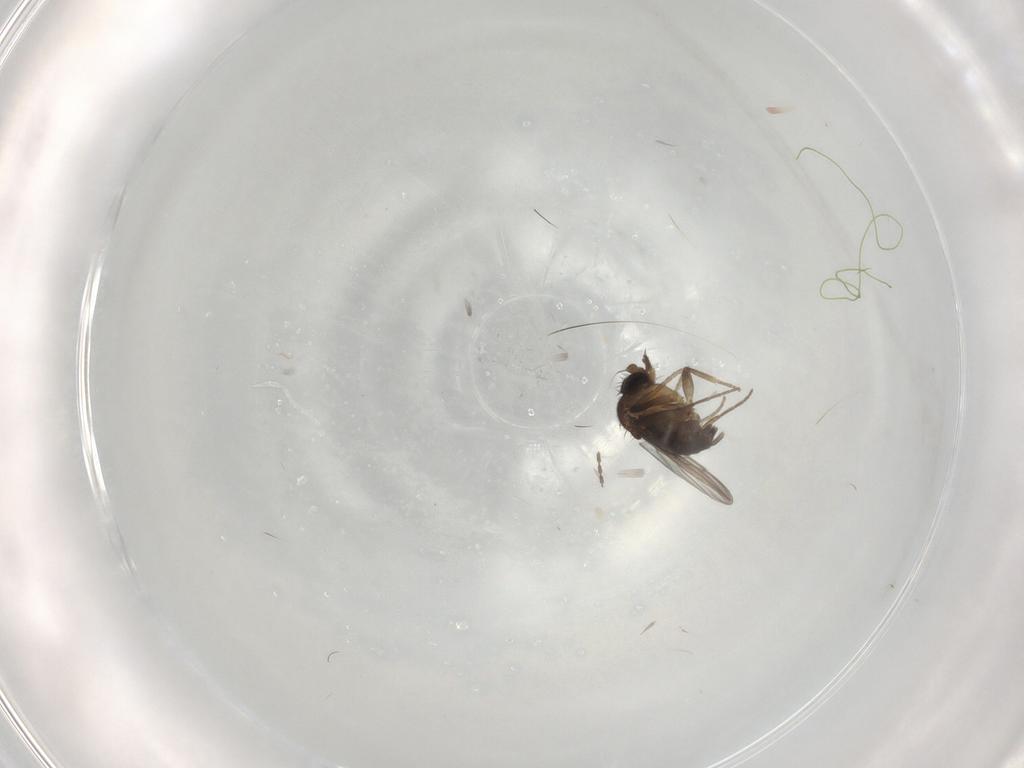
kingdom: Animalia
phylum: Arthropoda
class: Insecta
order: Diptera
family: Cecidomyiidae
